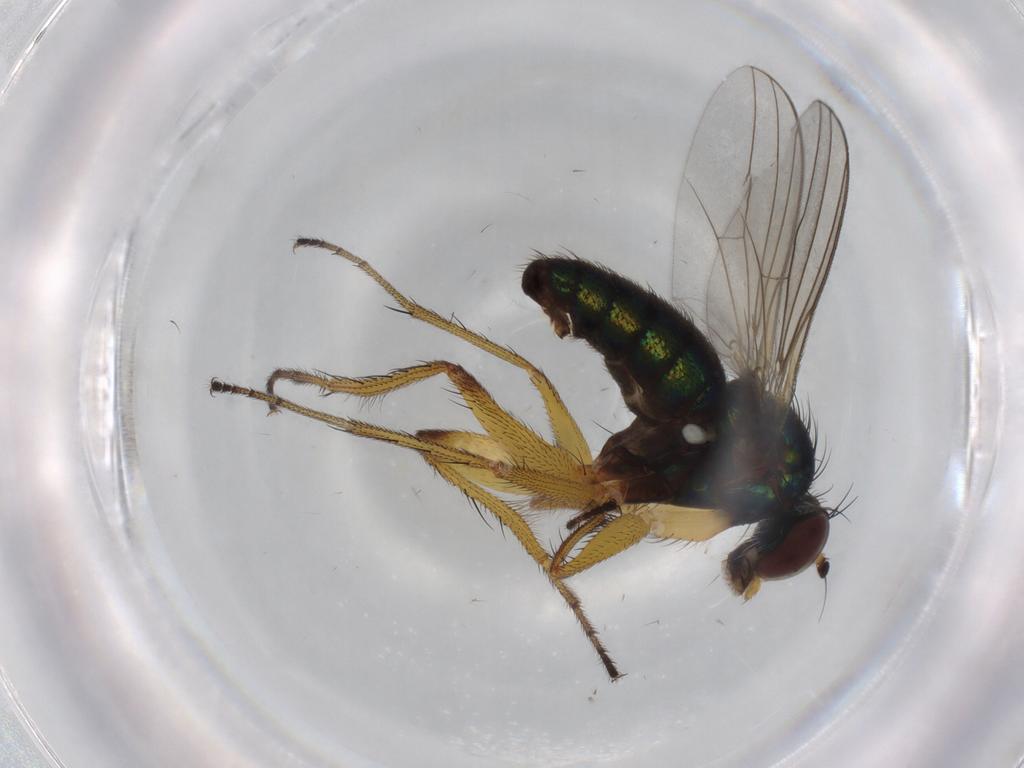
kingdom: Animalia
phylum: Arthropoda
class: Insecta
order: Diptera
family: Dolichopodidae
